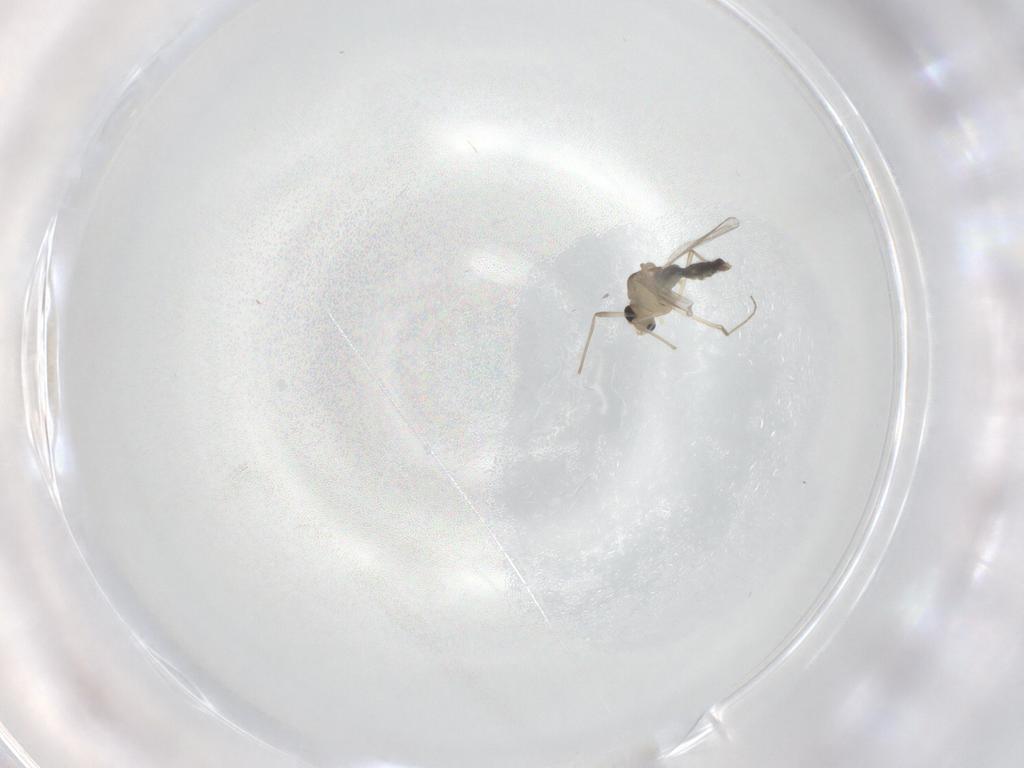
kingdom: Animalia
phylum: Arthropoda
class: Insecta
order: Diptera
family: Chironomidae
